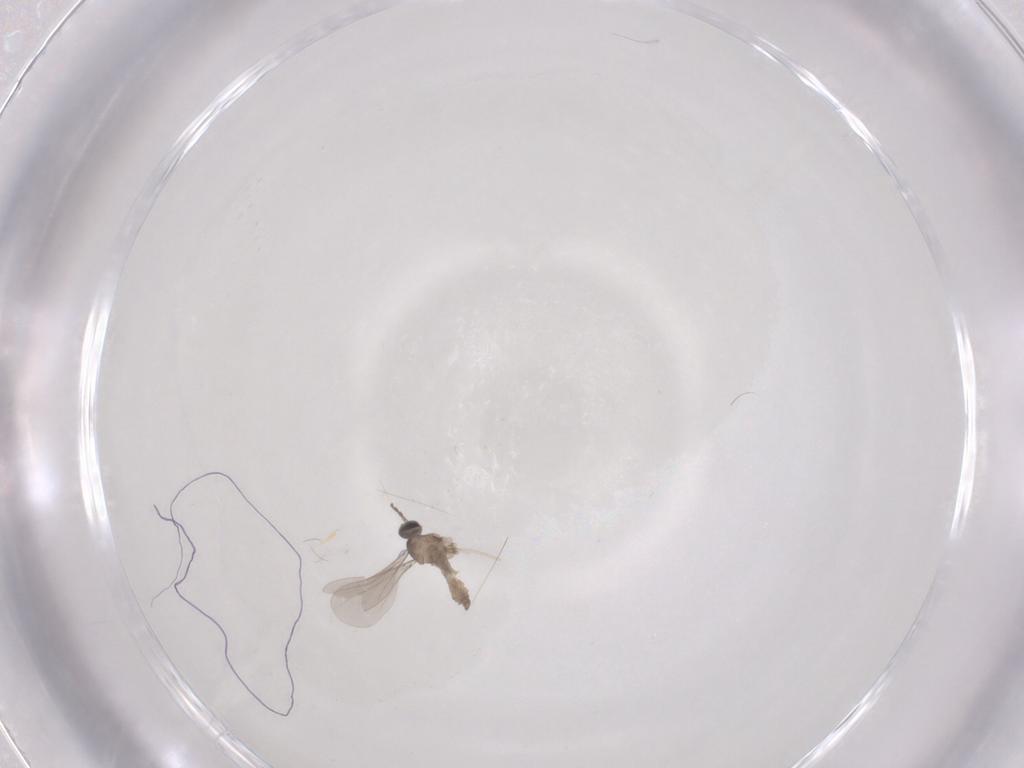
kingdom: Animalia
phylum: Arthropoda
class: Insecta
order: Diptera
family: Cecidomyiidae
